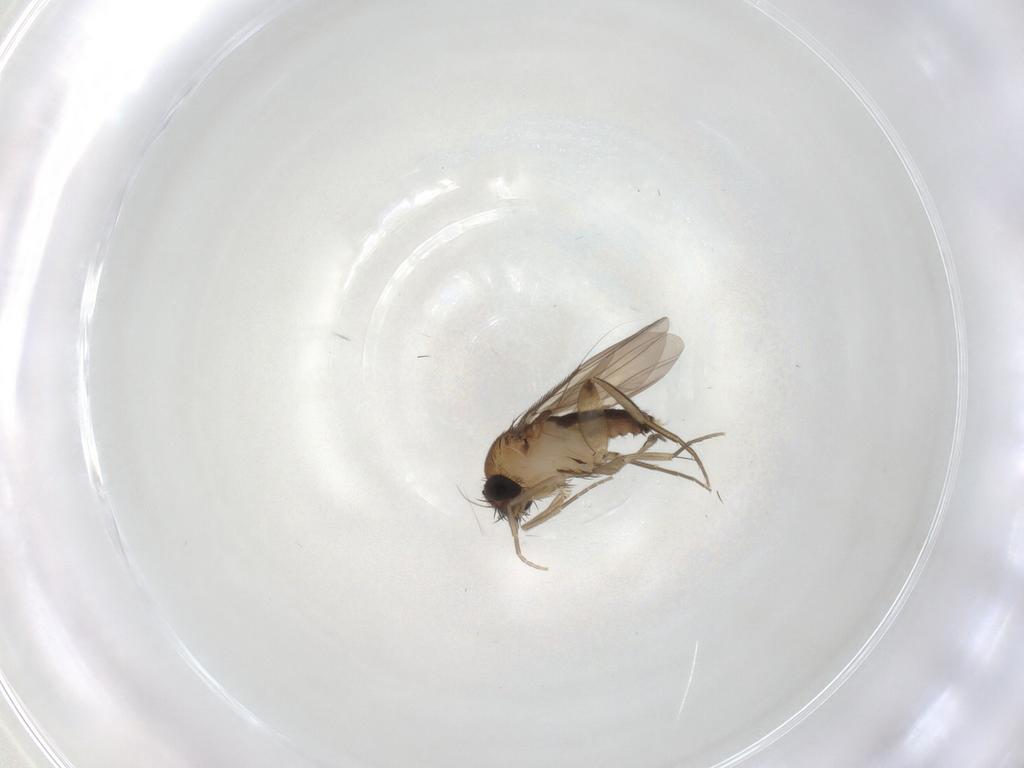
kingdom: Animalia
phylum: Arthropoda
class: Insecta
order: Diptera
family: Phoridae
